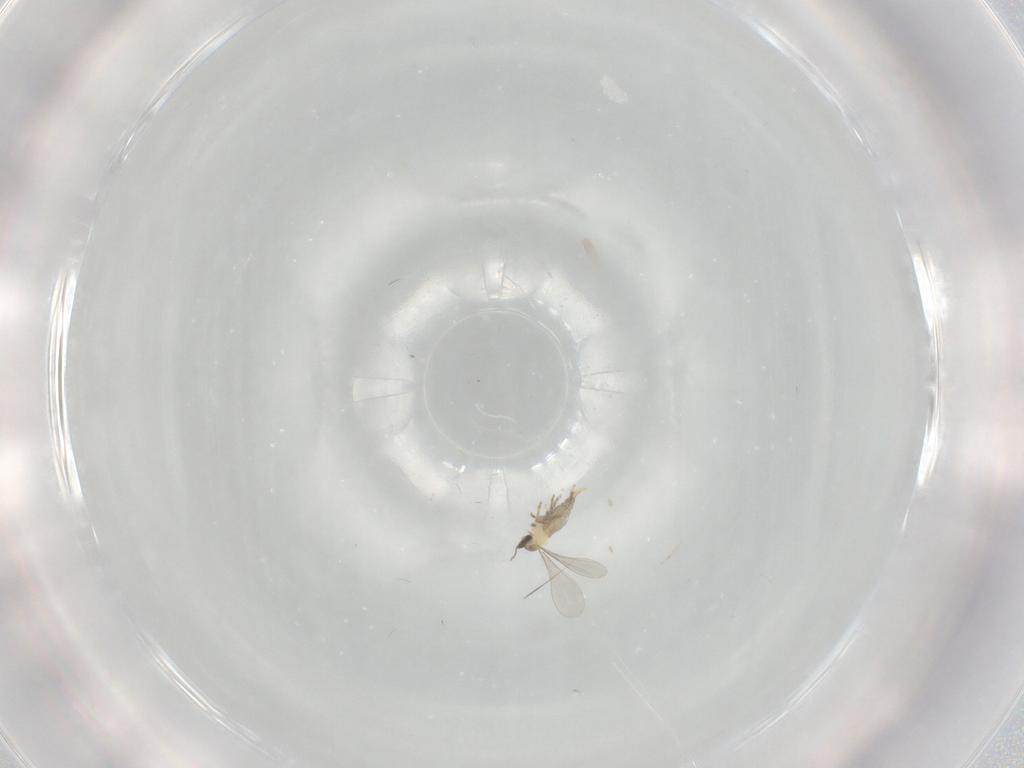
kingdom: Animalia
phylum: Arthropoda
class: Insecta
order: Diptera
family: Cecidomyiidae
